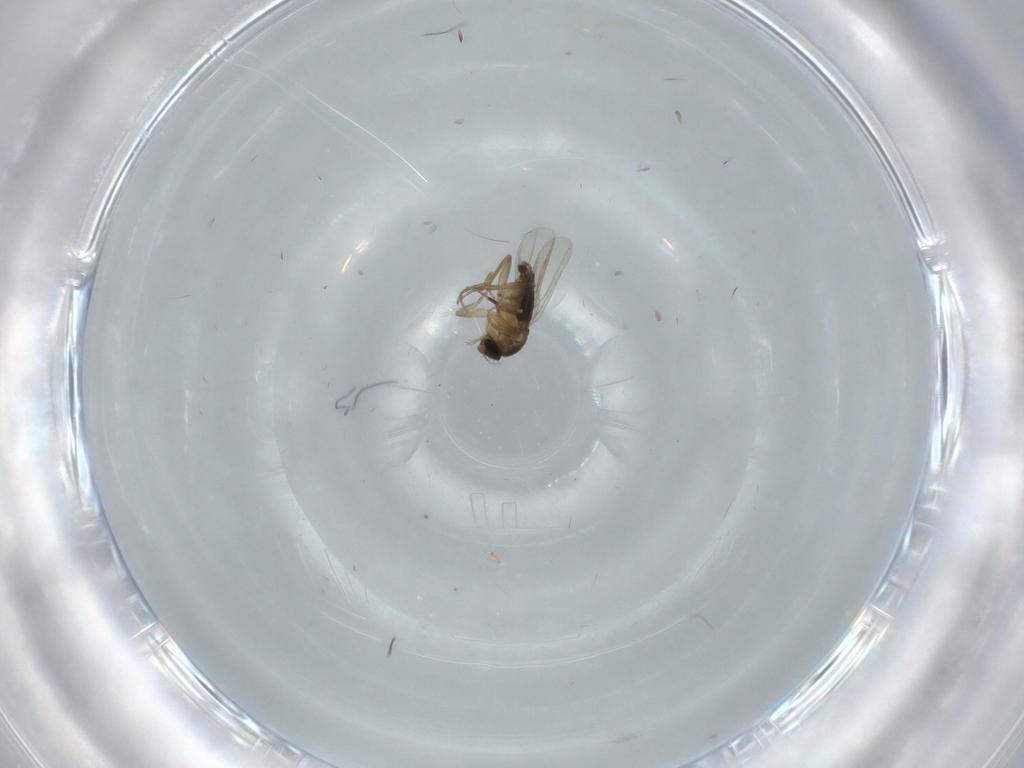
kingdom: Animalia
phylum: Arthropoda
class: Insecta
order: Diptera
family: Phoridae
